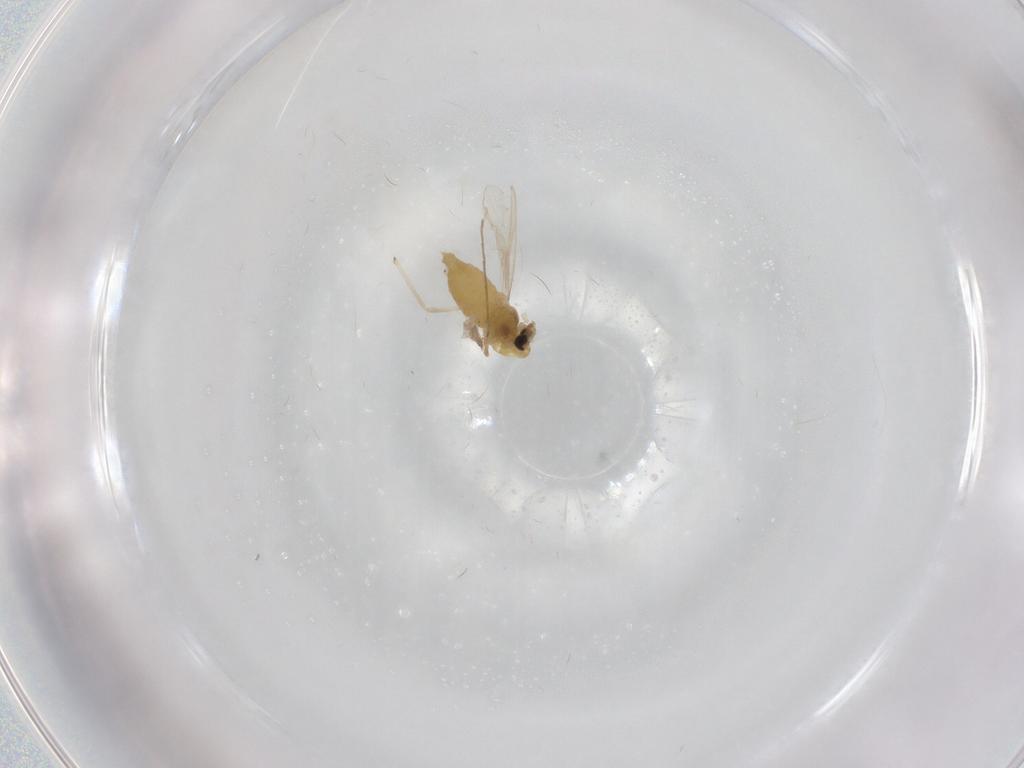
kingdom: Animalia
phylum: Arthropoda
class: Insecta
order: Diptera
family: Chironomidae
